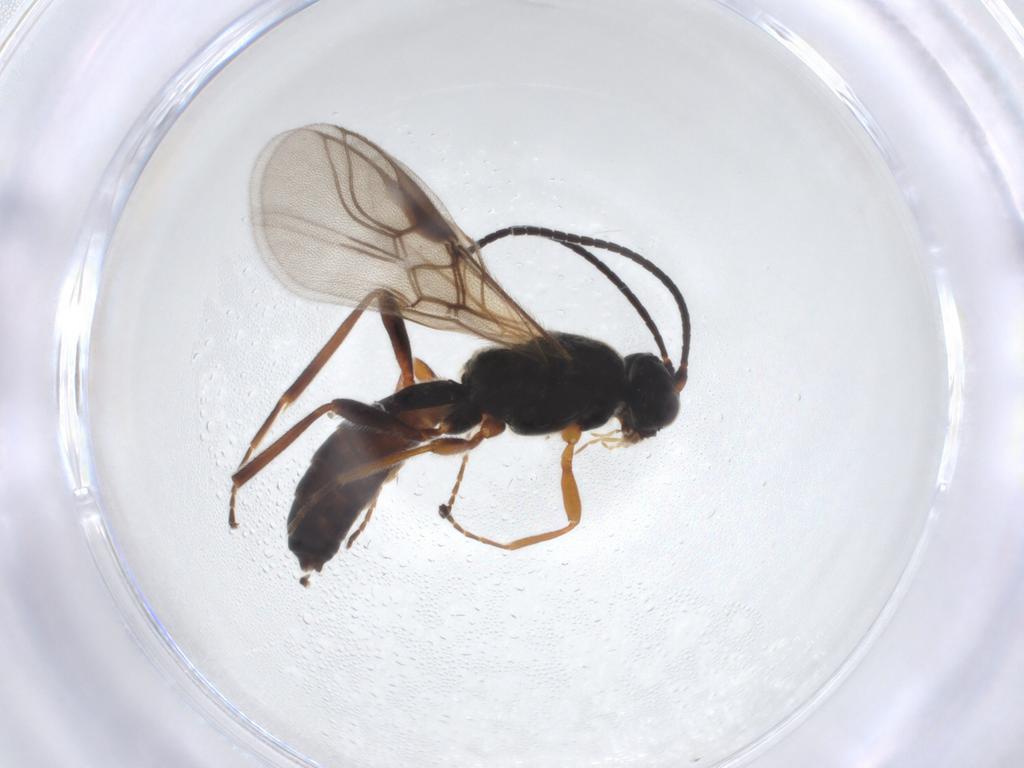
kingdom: Animalia
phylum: Arthropoda
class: Insecta
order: Hymenoptera
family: Braconidae
